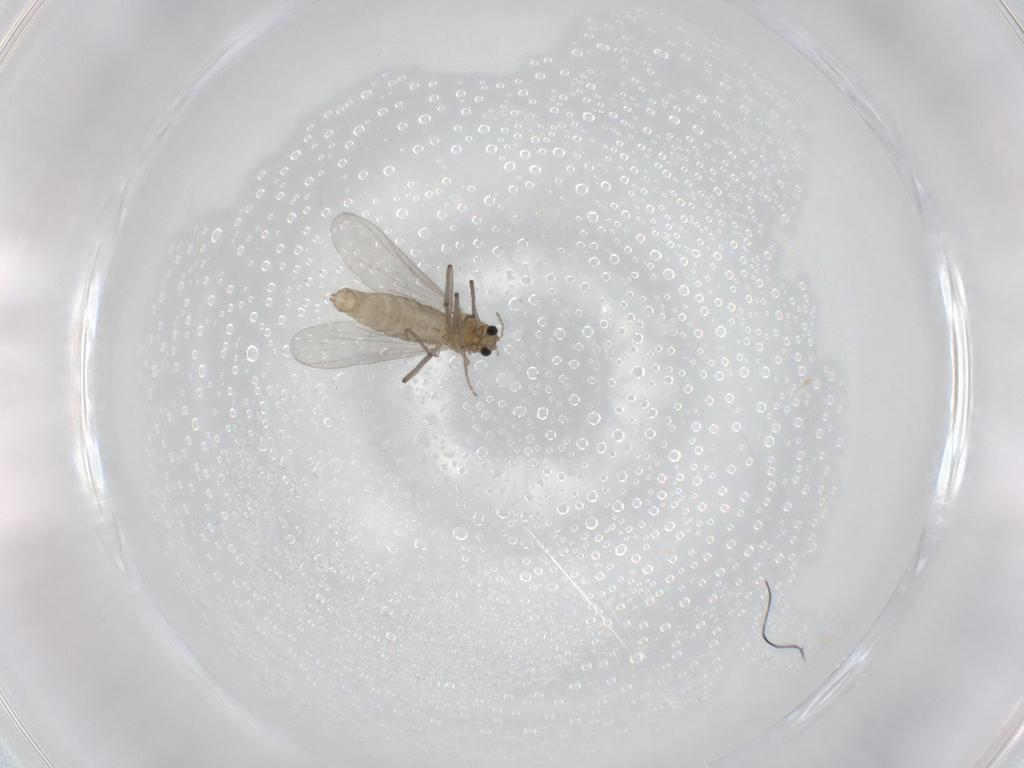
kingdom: Animalia
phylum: Arthropoda
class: Insecta
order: Diptera
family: Chironomidae
